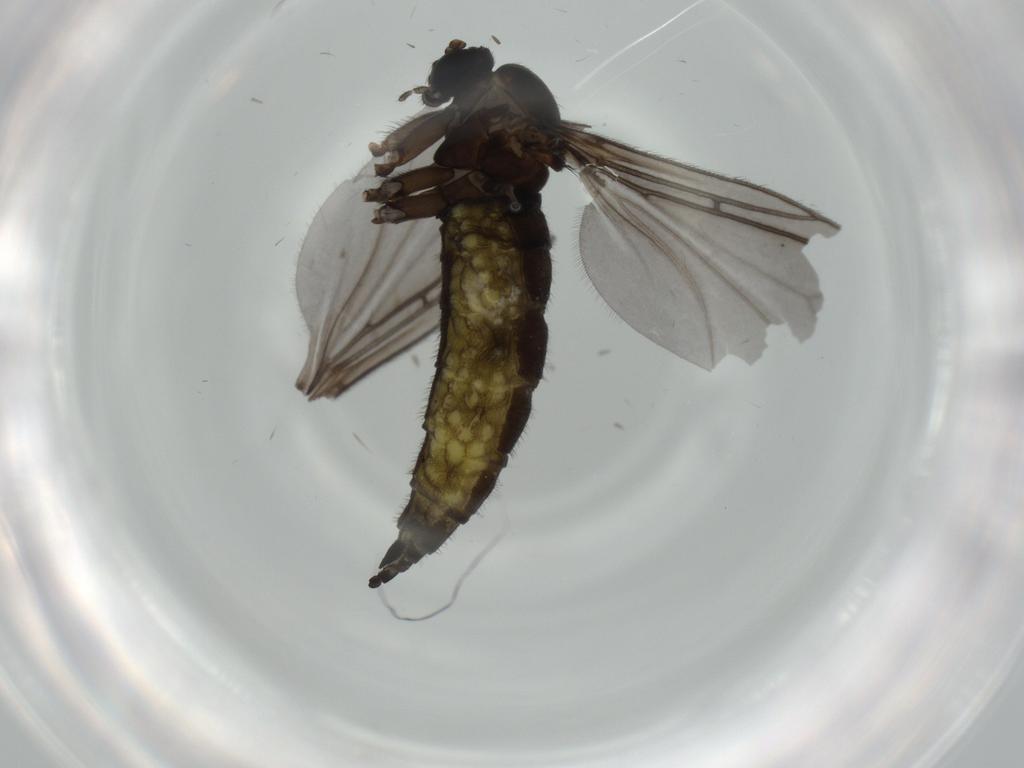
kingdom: Animalia
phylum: Arthropoda
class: Insecta
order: Diptera
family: Sciaridae
